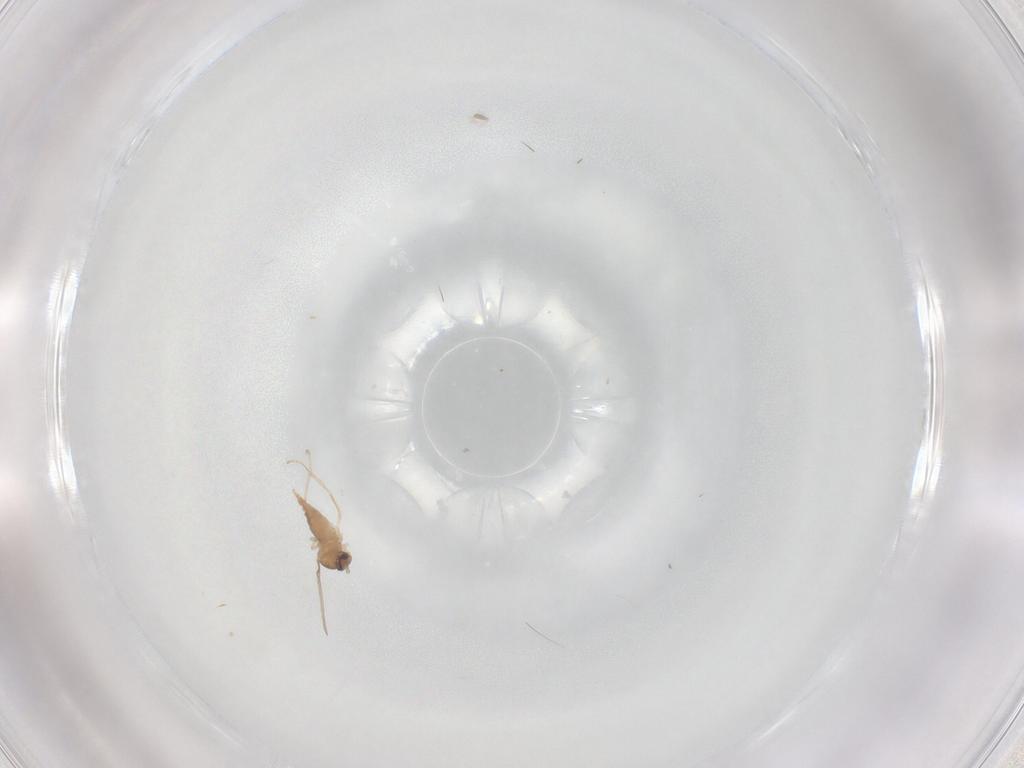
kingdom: Animalia
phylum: Arthropoda
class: Insecta
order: Diptera
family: Cecidomyiidae
